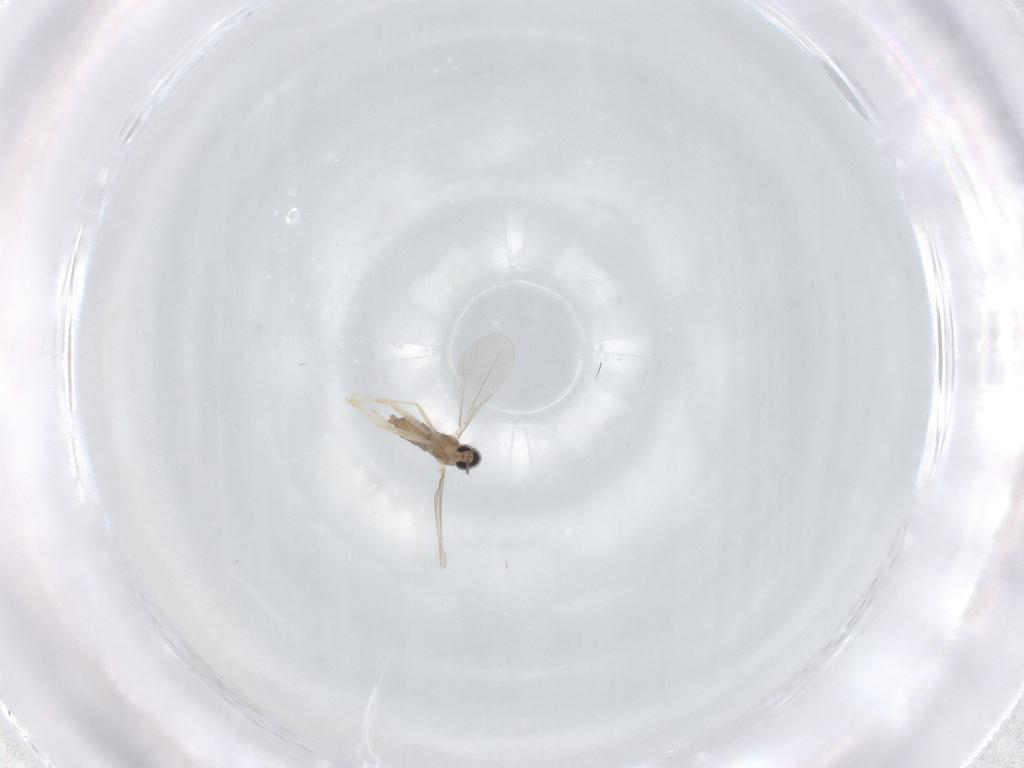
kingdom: Animalia
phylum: Arthropoda
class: Insecta
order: Diptera
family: Cecidomyiidae
